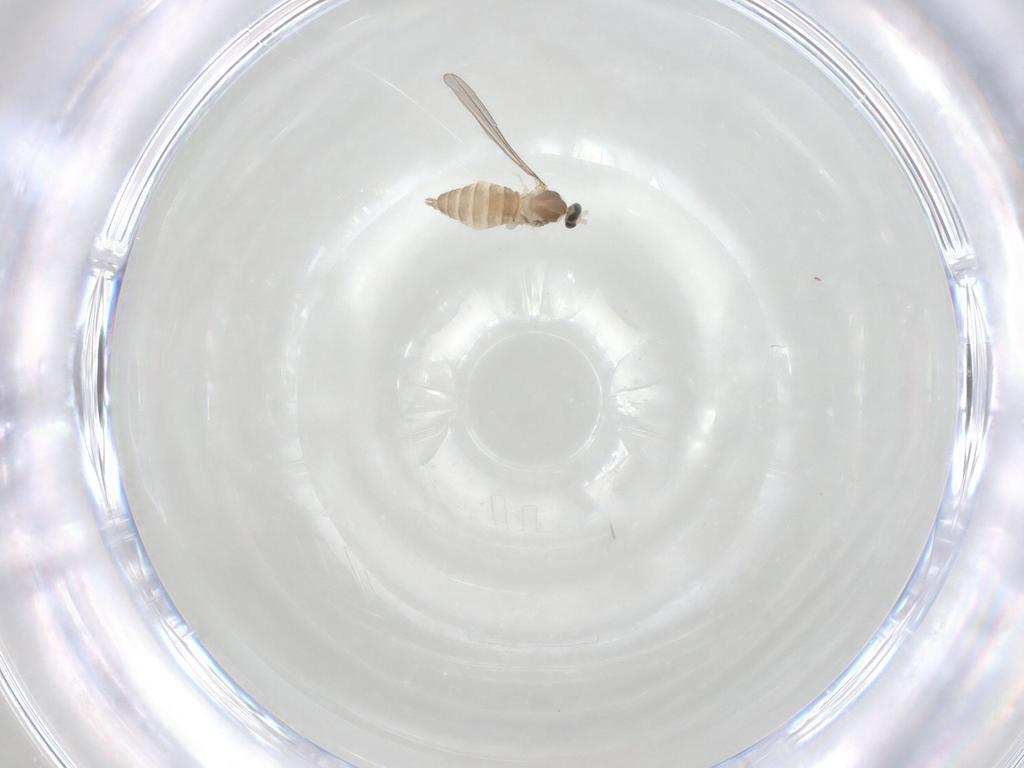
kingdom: Animalia
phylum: Arthropoda
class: Insecta
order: Diptera
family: Cecidomyiidae
